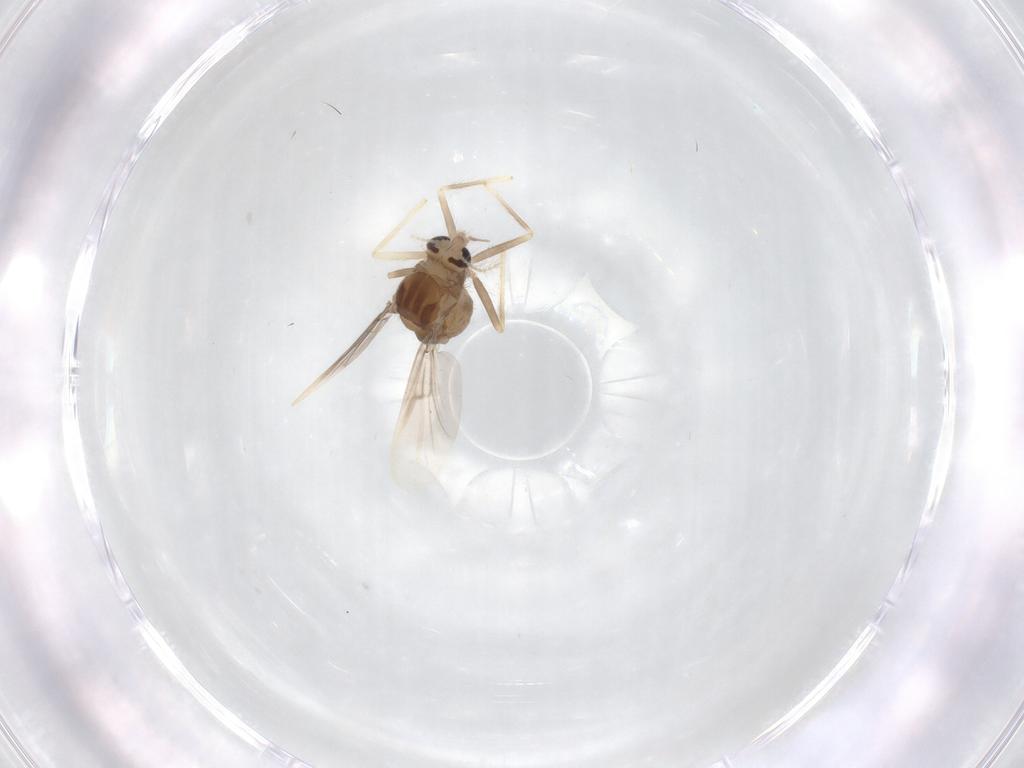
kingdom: Animalia
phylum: Arthropoda
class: Insecta
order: Diptera
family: Chironomidae
